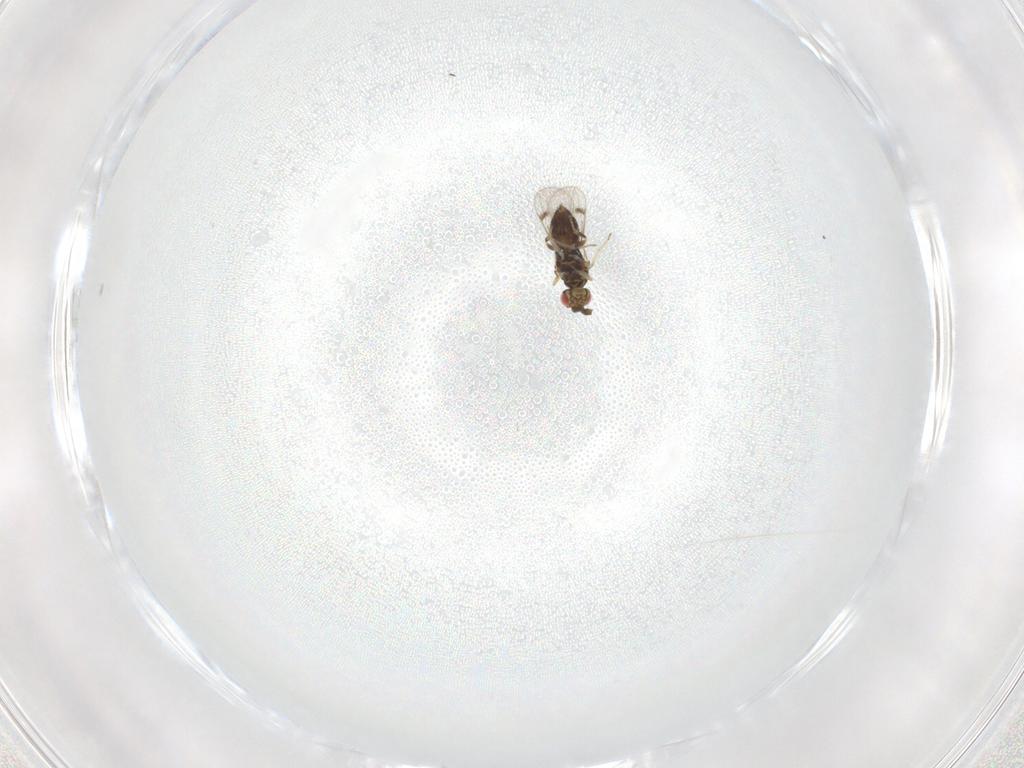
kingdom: Animalia
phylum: Arthropoda
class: Insecta
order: Hymenoptera
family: Eulophidae
